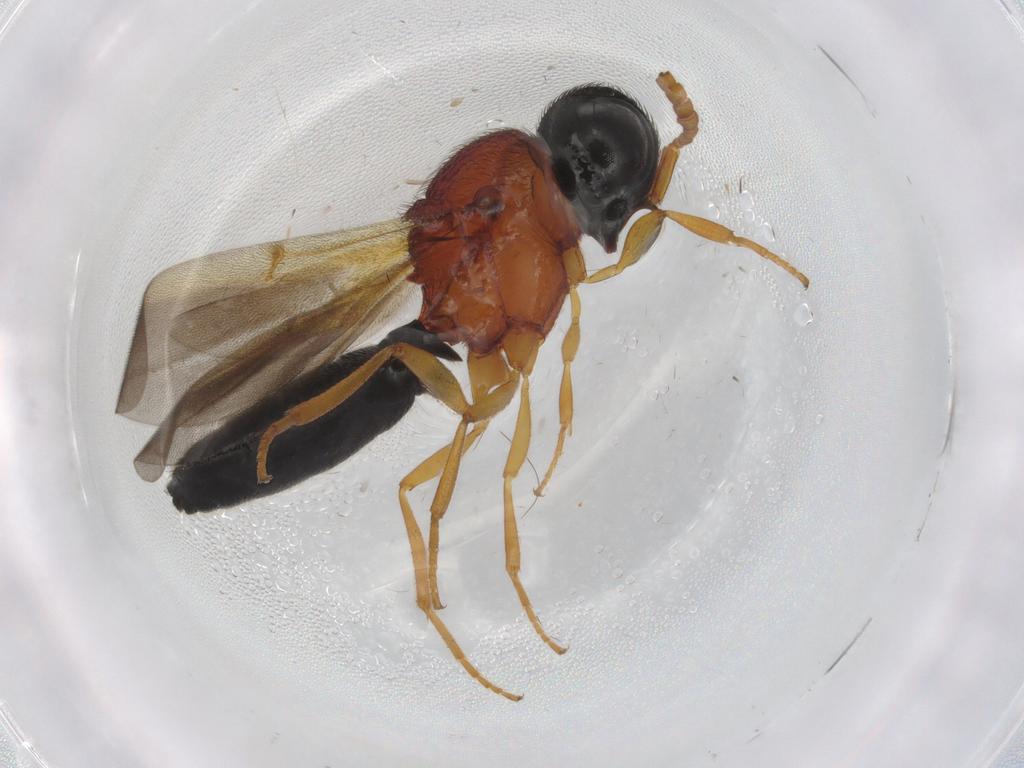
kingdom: Animalia
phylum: Arthropoda
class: Insecta
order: Hymenoptera
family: Scelionidae
